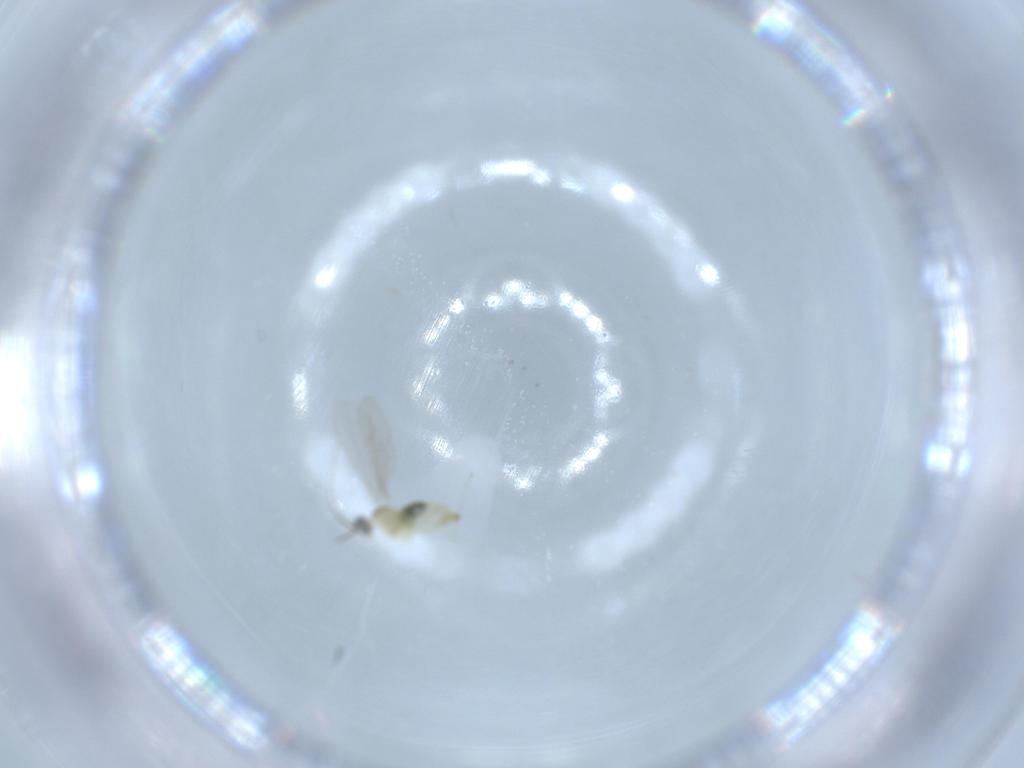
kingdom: Animalia
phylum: Arthropoda
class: Insecta
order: Diptera
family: Cecidomyiidae
